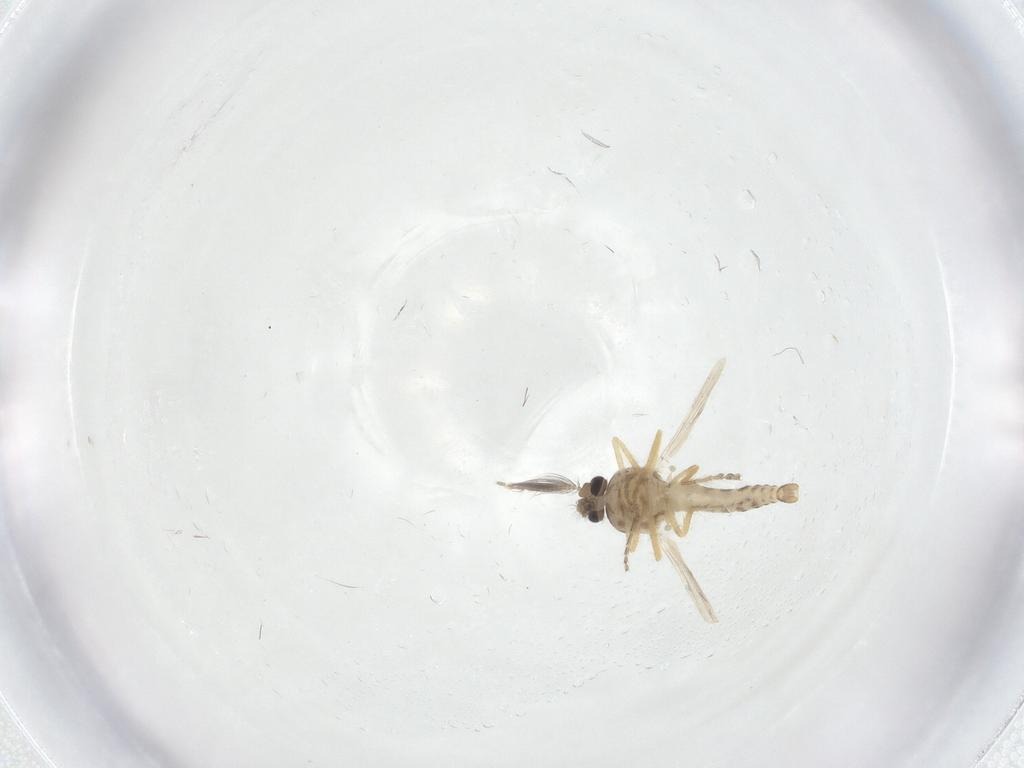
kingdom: Animalia
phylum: Arthropoda
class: Insecta
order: Diptera
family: Ceratopogonidae
